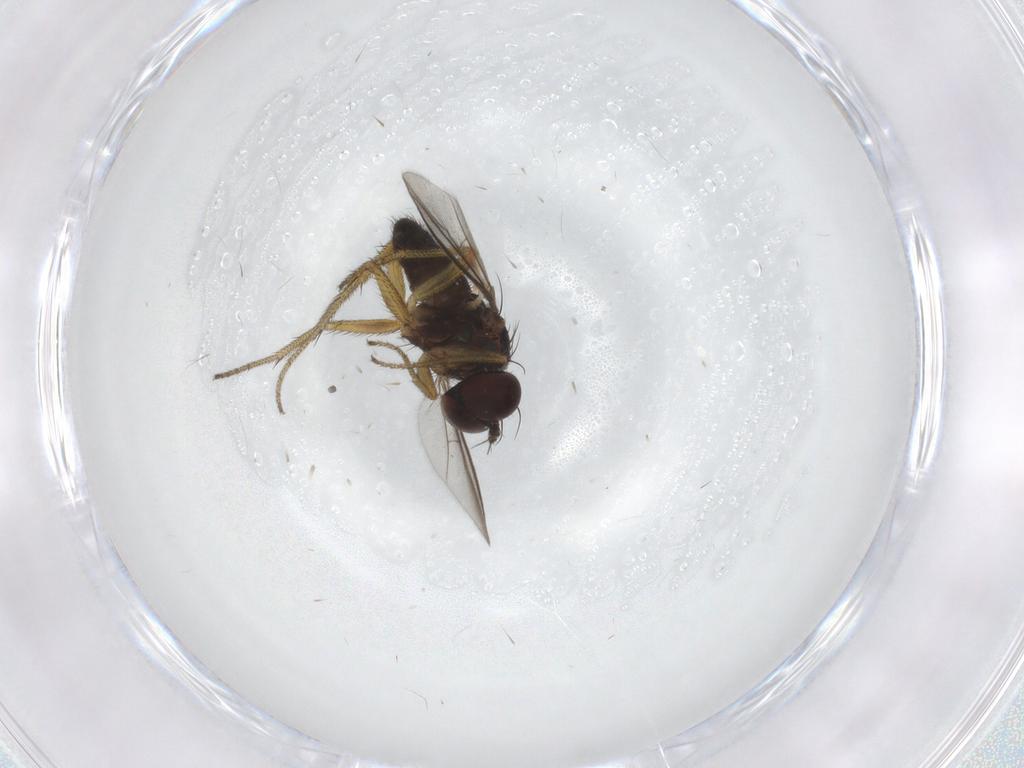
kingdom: Animalia
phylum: Arthropoda
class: Insecta
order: Diptera
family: Chironomidae
